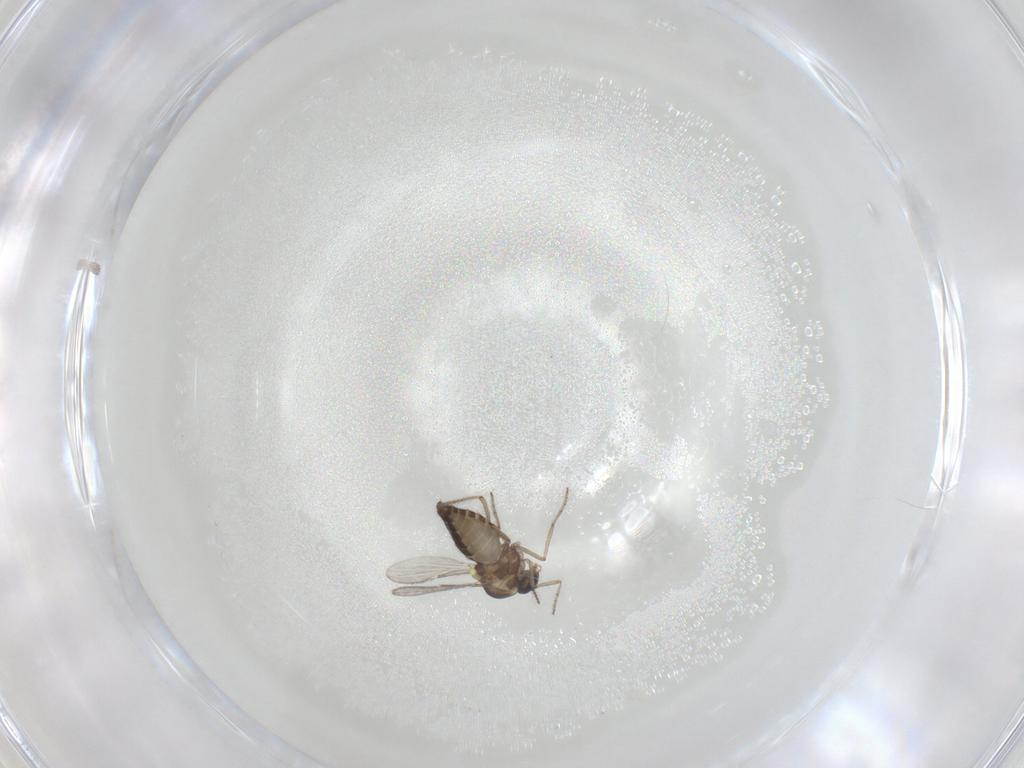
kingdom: Animalia
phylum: Arthropoda
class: Insecta
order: Diptera
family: Ceratopogonidae
